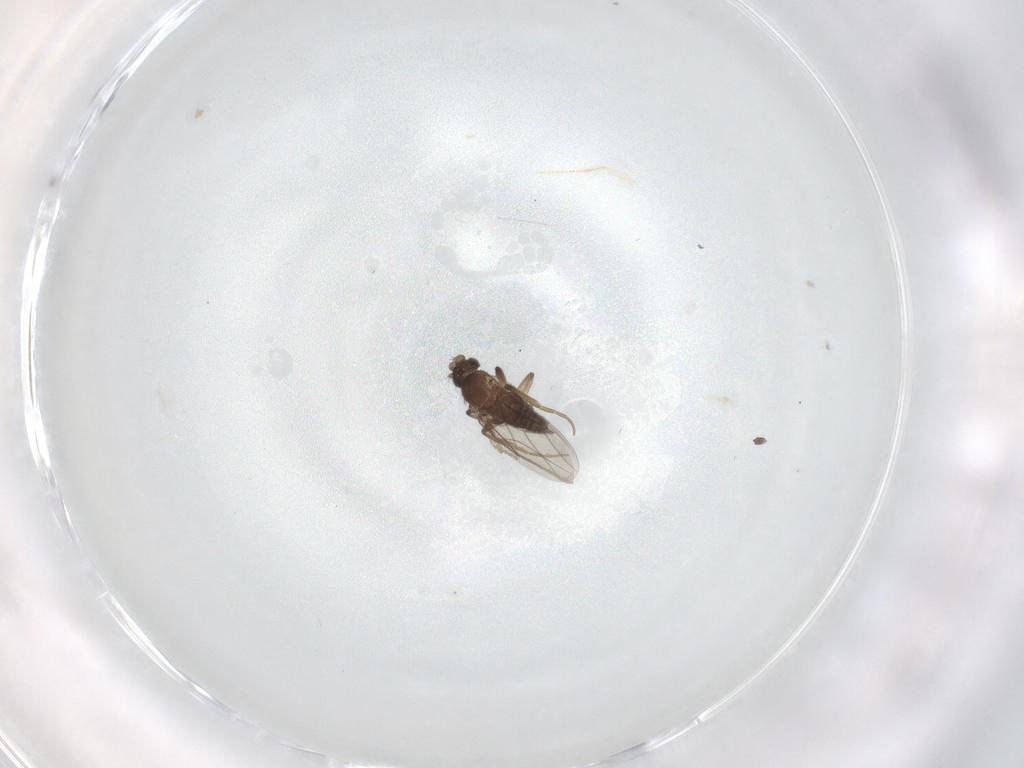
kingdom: Animalia
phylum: Arthropoda
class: Insecta
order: Diptera
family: Phoridae
